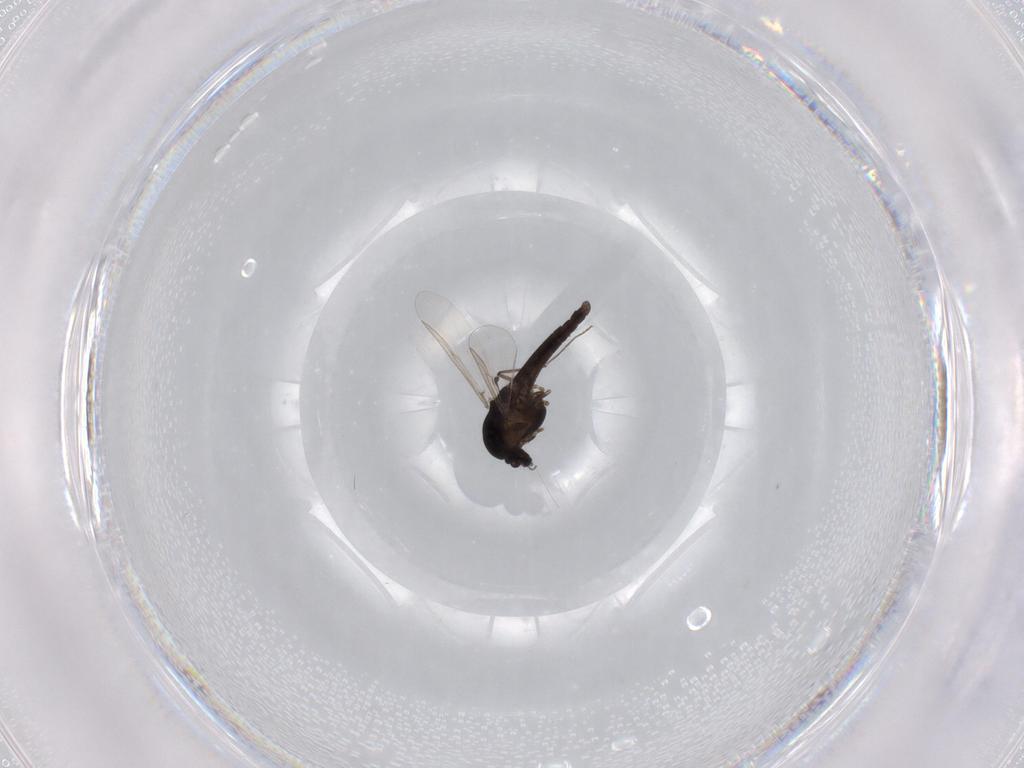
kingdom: Animalia
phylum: Arthropoda
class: Insecta
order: Diptera
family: Chironomidae
